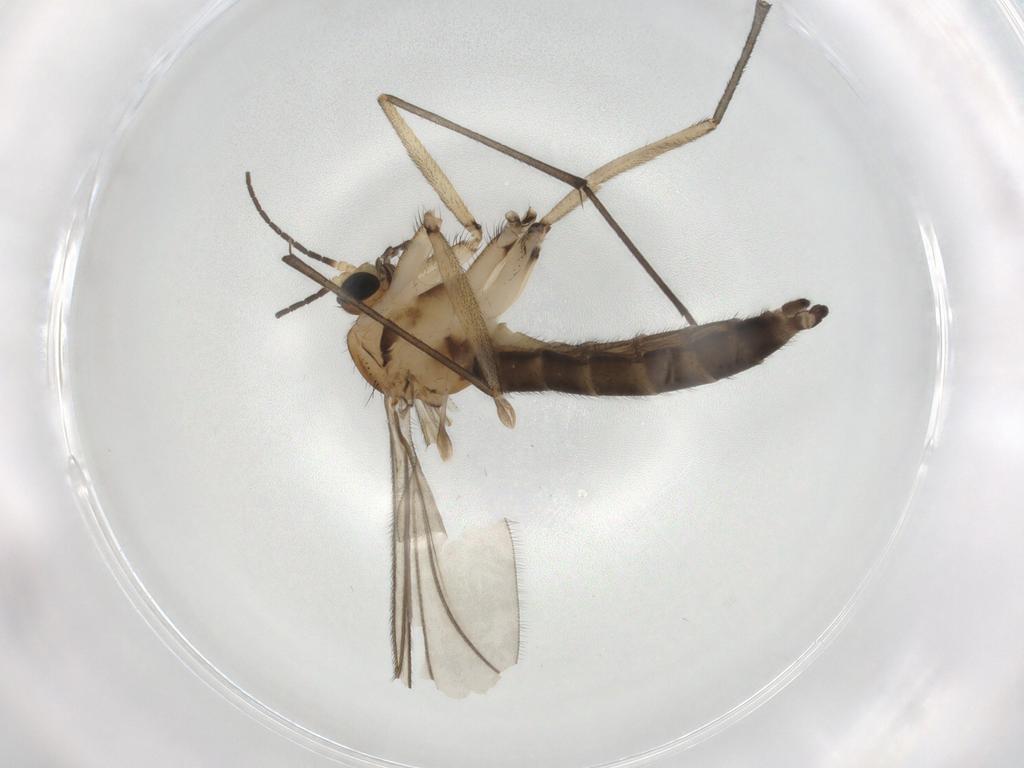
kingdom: Animalia
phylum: Arthropoda
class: Insecta
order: Diptera
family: Sciaridae
